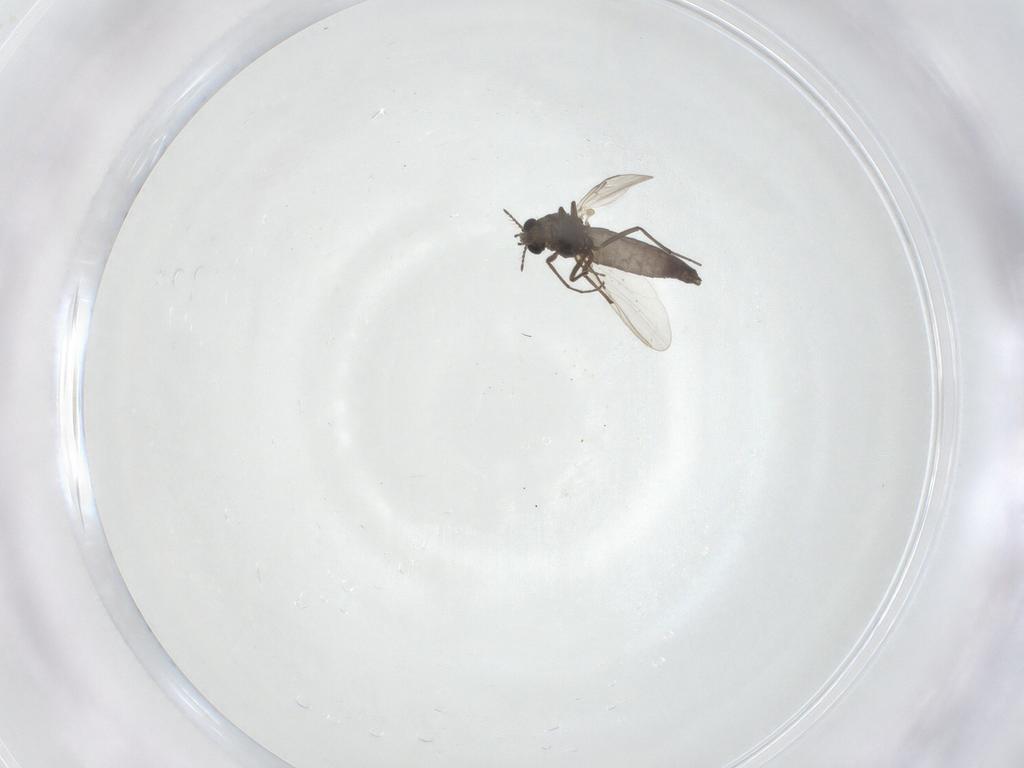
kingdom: Animalia
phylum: Arthropoda
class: Insecta
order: Diptera
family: Chironomidae
